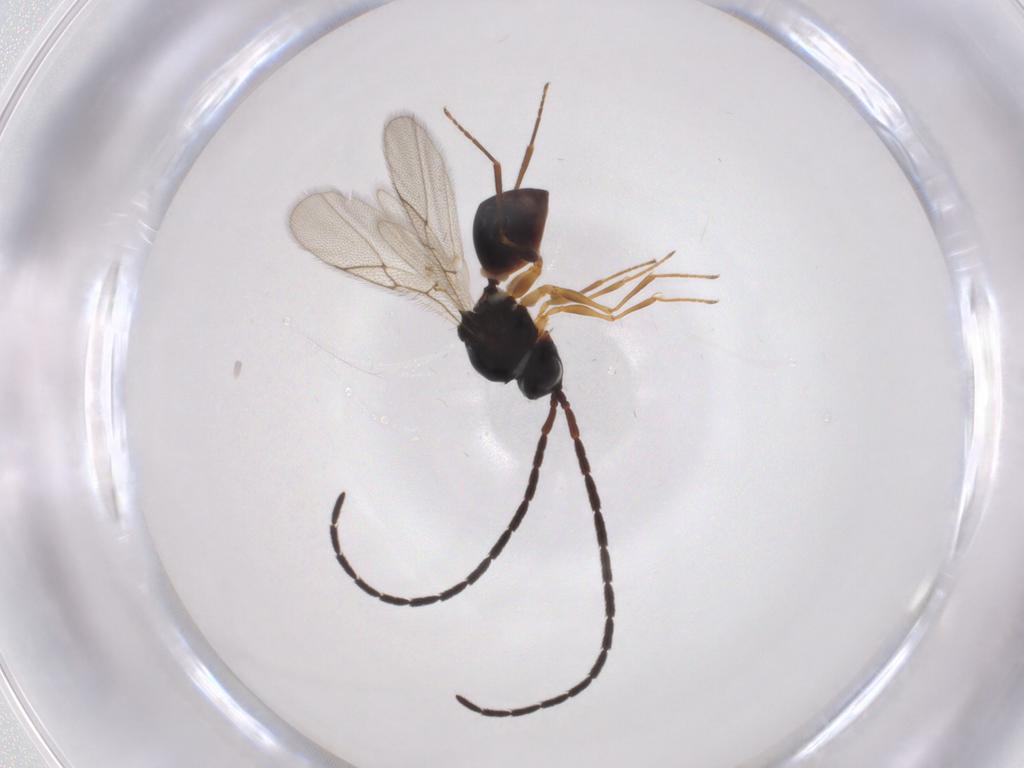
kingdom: Animalia
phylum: Arthropoda
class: Insecta
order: Hymenoptera
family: Figitidae
